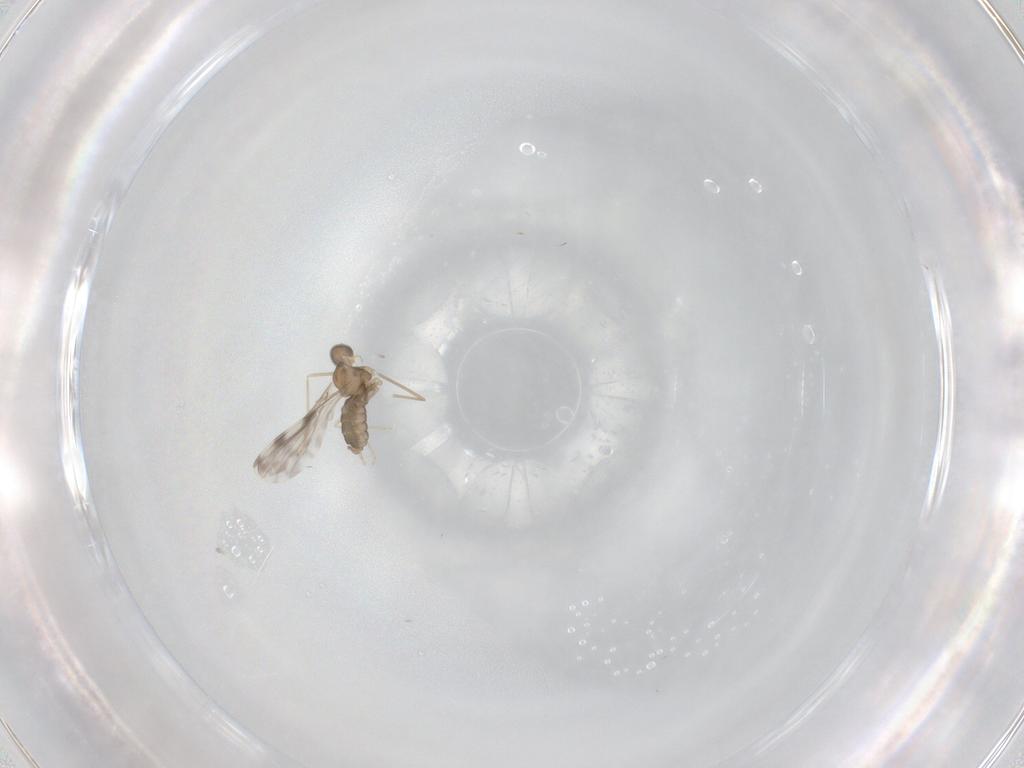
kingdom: Animalia
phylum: Arthropoda
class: Insecta
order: Diptera
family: Cecidomyiidae
